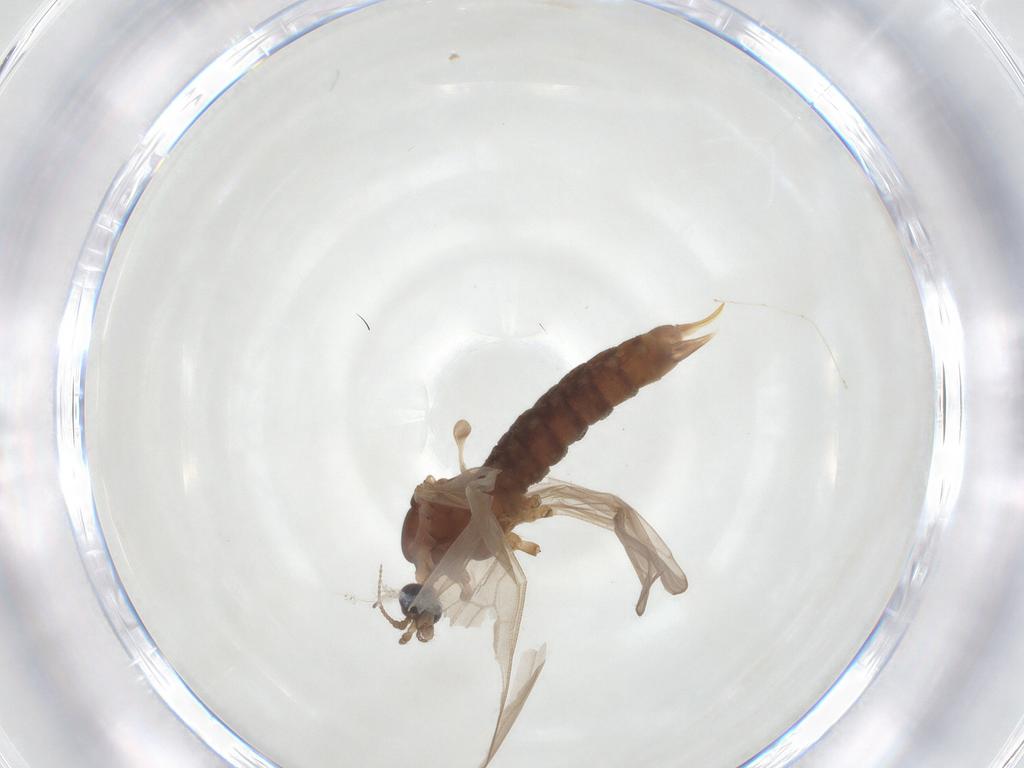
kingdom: Animalia
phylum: Arthropoda
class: Insecta
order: Diptera
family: Limoniidae
